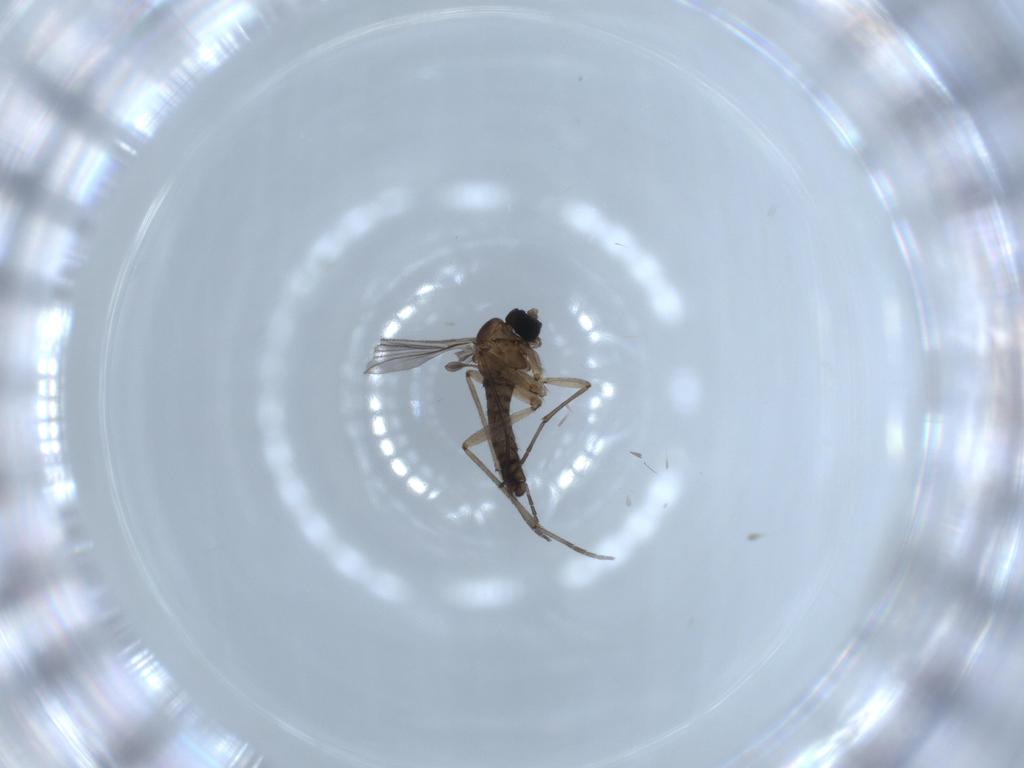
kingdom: Animalia
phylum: Arthropoda
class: Insecta
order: Diptera
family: Sciaridae
